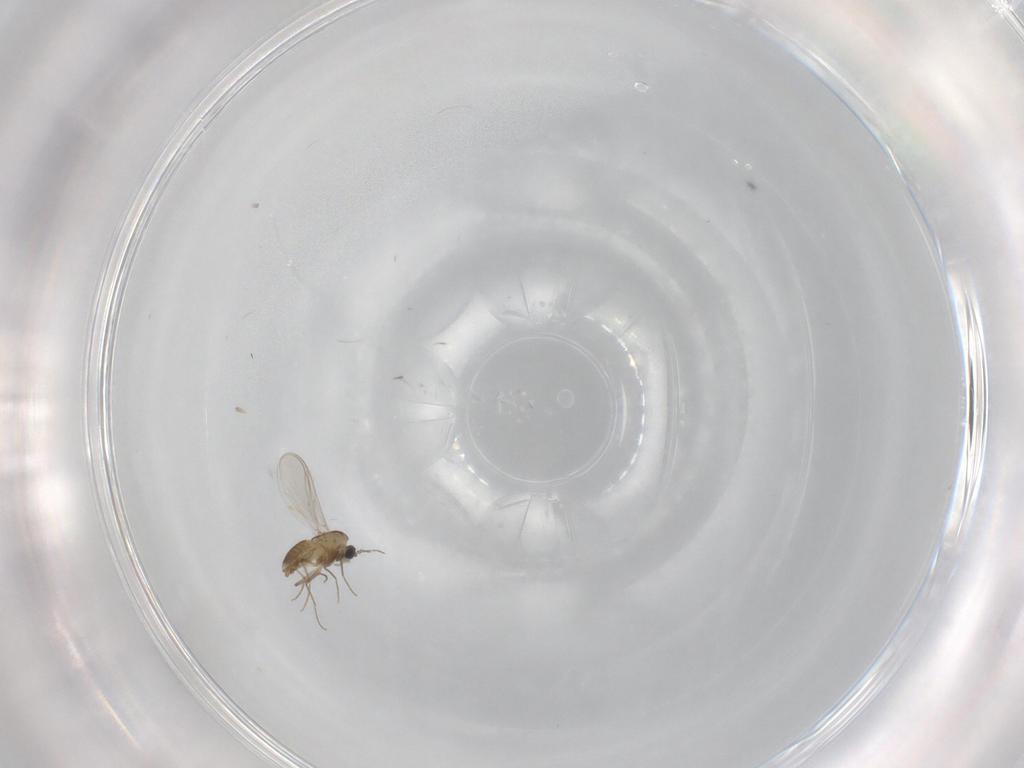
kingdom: Animalia
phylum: Arthropoda
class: Insecta
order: Diptera
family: Chironomidae
